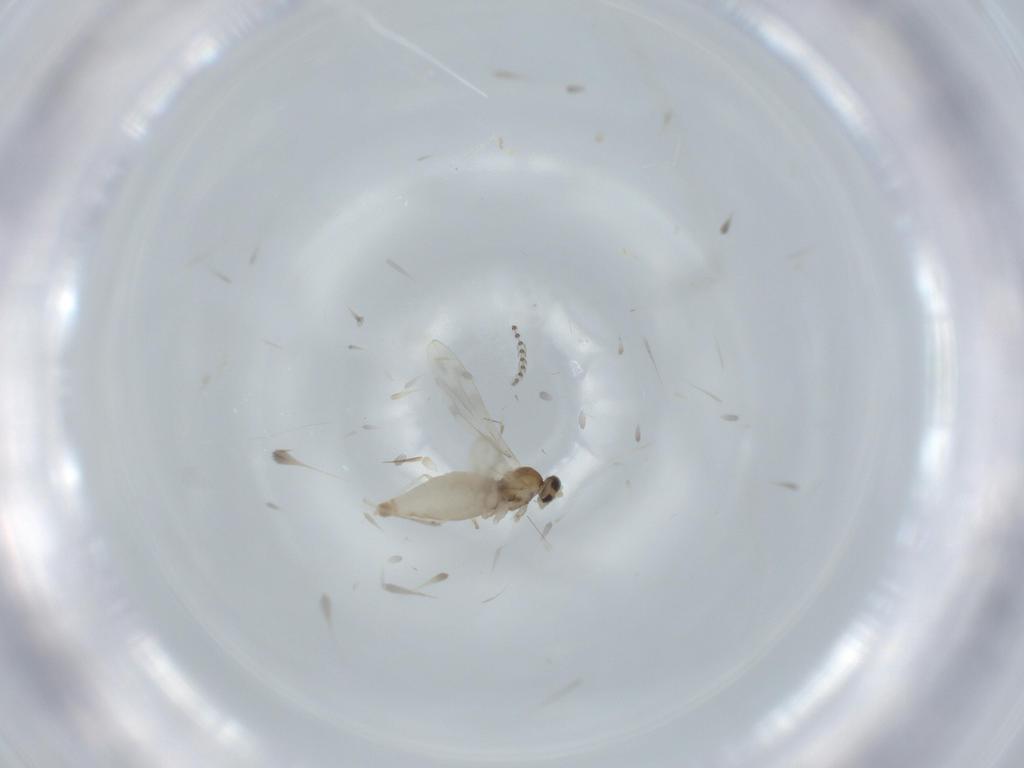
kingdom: Animalia
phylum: Arthropoda
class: Insecta
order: Diptera
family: Cecidomyiidae
